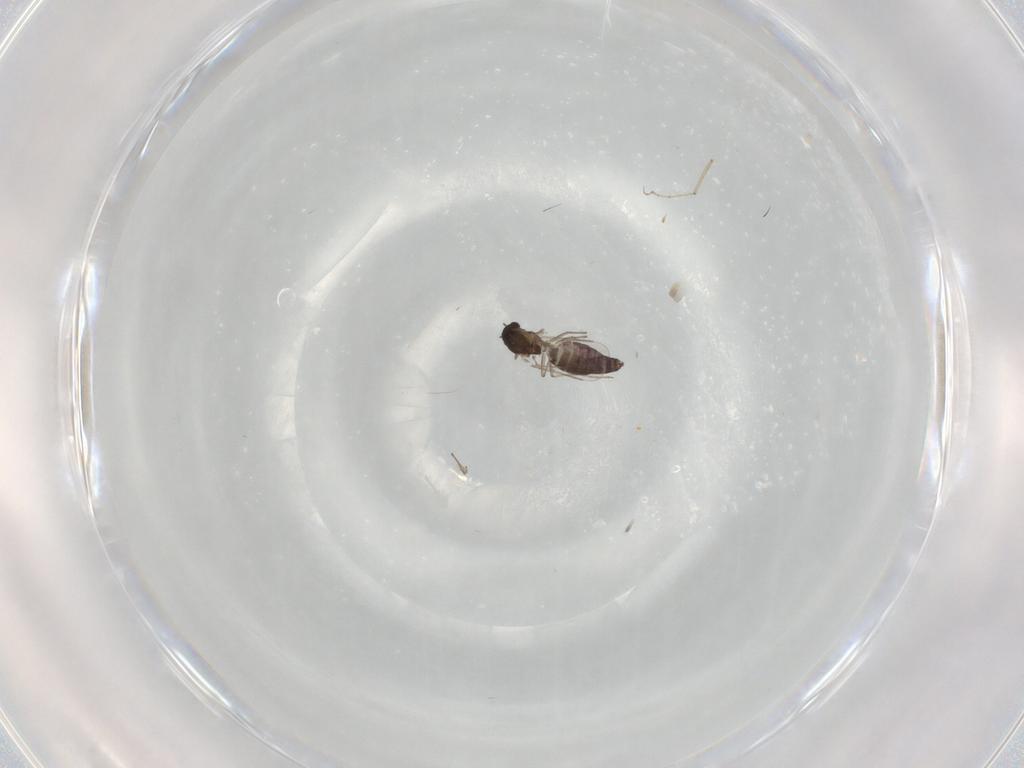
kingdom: Animalia
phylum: Arthropoda
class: Insecta
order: Diptera
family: Chironomidae
